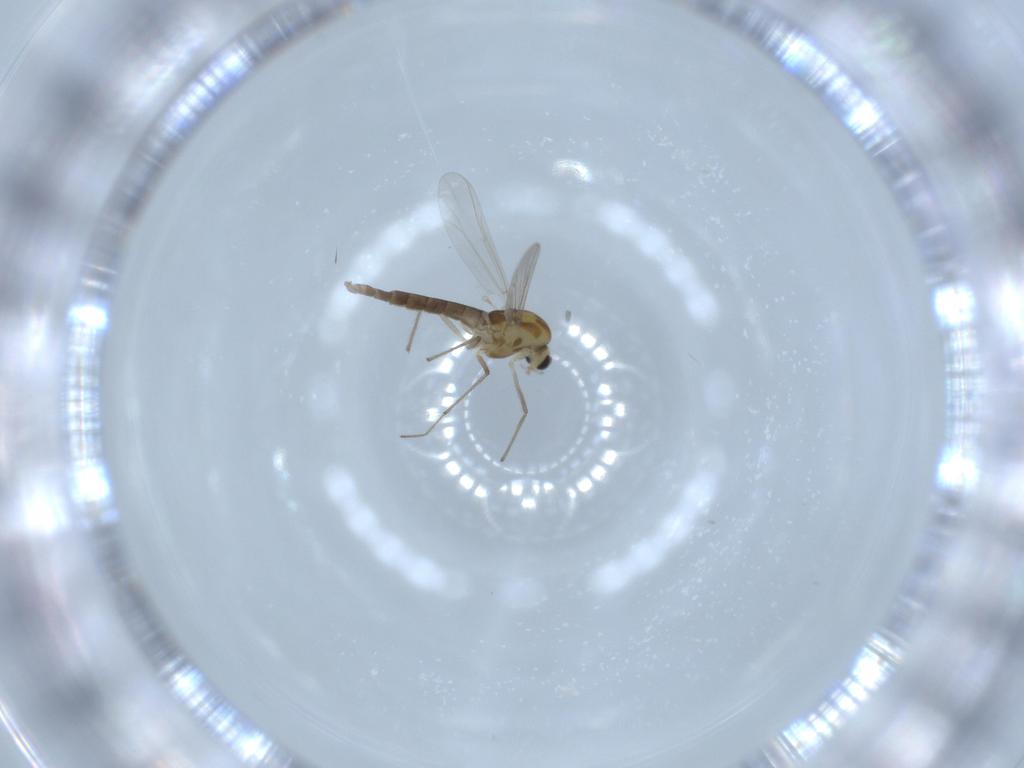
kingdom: Animalia
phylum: Arthropoda
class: Insecta
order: Diptera
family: Chironomidae
